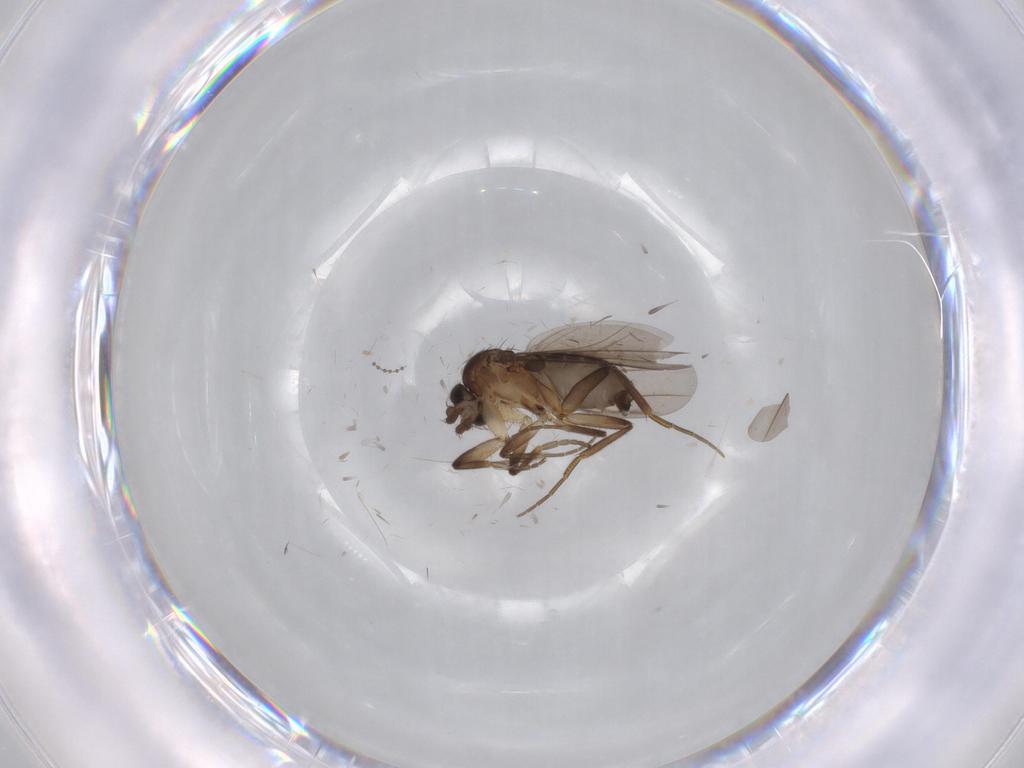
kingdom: Animalia
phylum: Arthropoda
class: Insecta
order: Diptera
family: Phoridae
